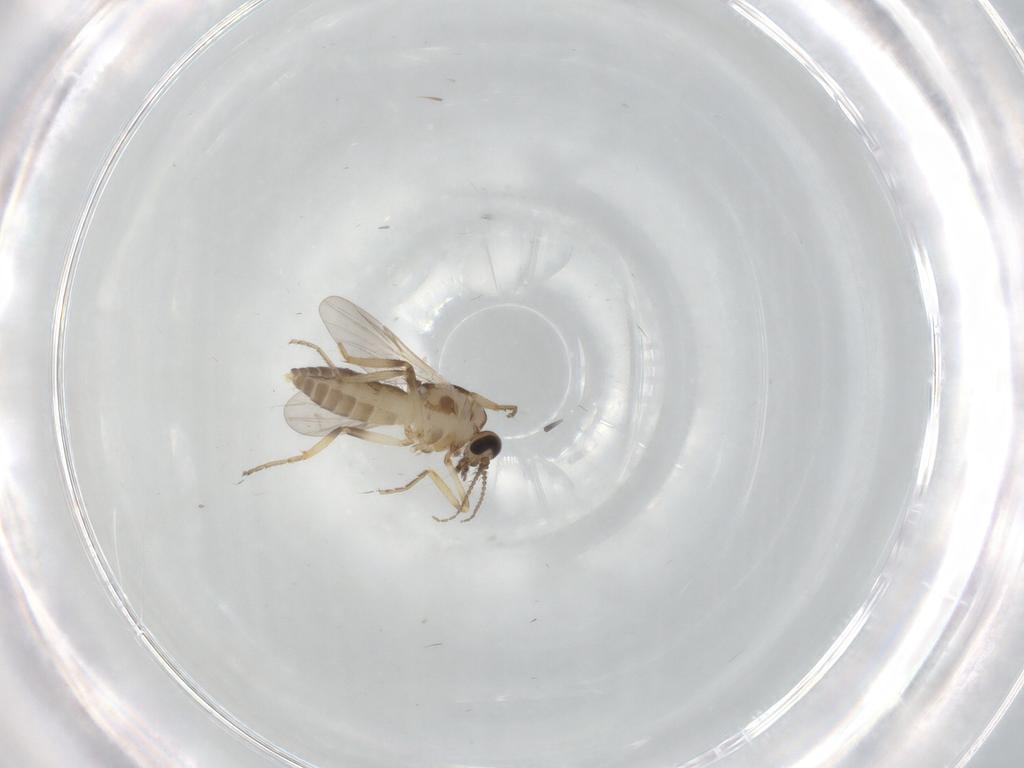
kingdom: Animalia
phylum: Arthropoda
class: Insecta
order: Diptera
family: Ceratopogonidae
